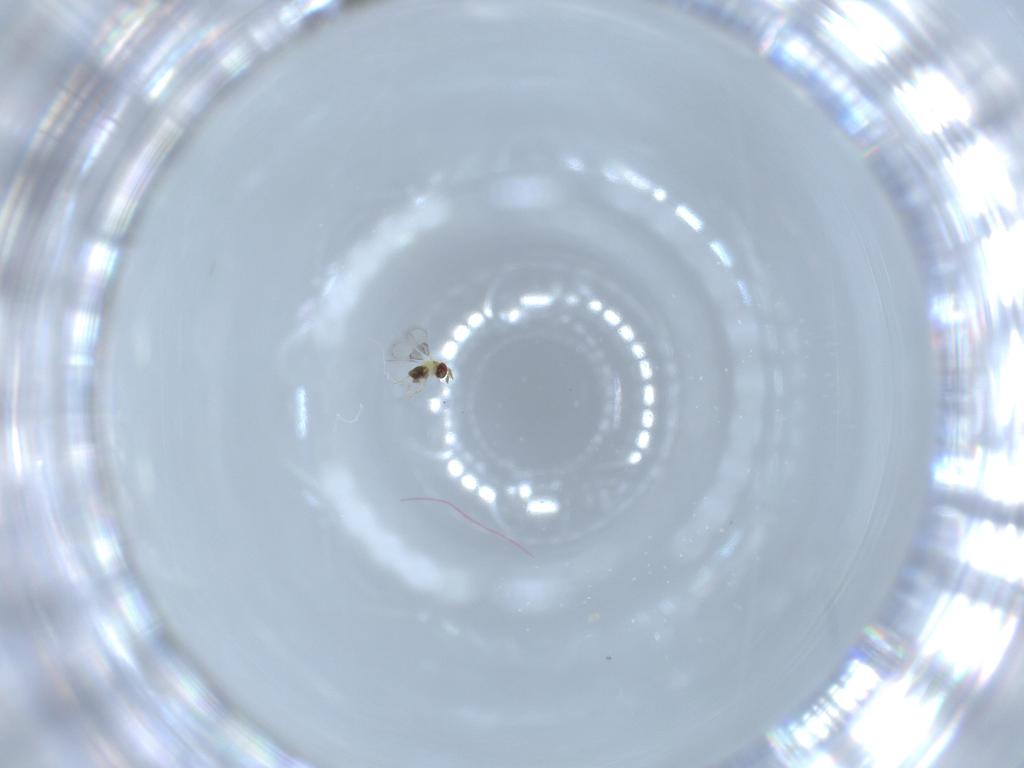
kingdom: Animalia
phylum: Arthropoda
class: Insecta
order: Hymenoptera
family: Trichogrammatidae
